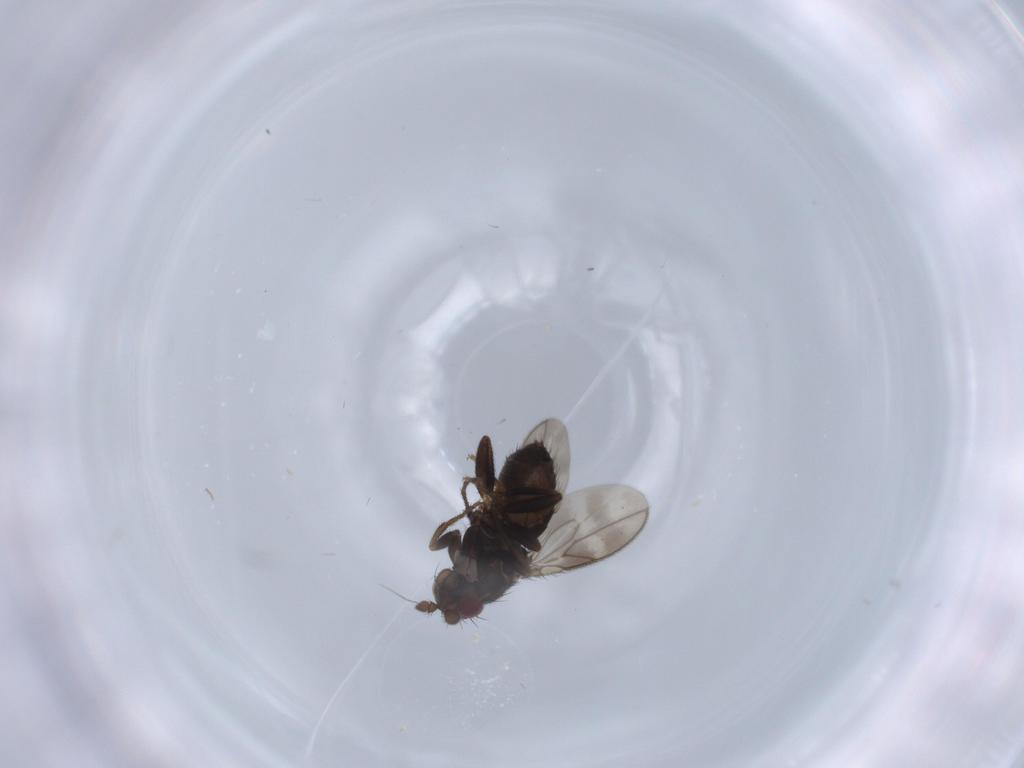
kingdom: Animalia
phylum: Arthropoda
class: Insecta
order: Diptera
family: Sphaeroceridae
